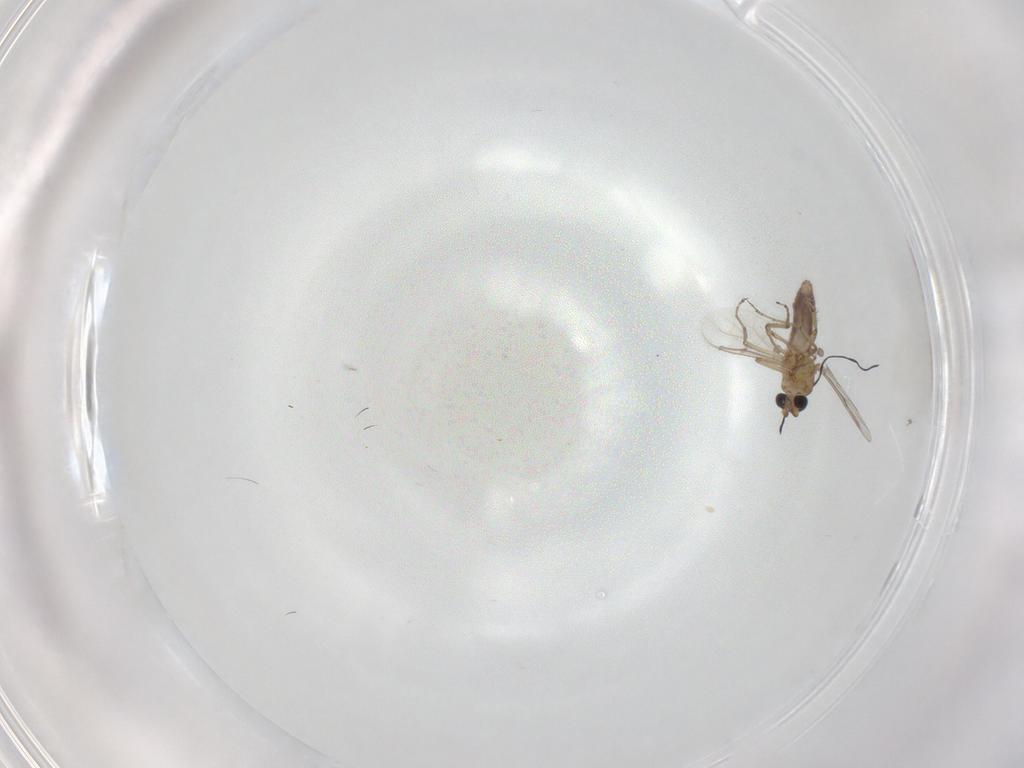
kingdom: Animalia
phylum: Arthropoda
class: Insecta
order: Diptera
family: Ceratopogonidae
